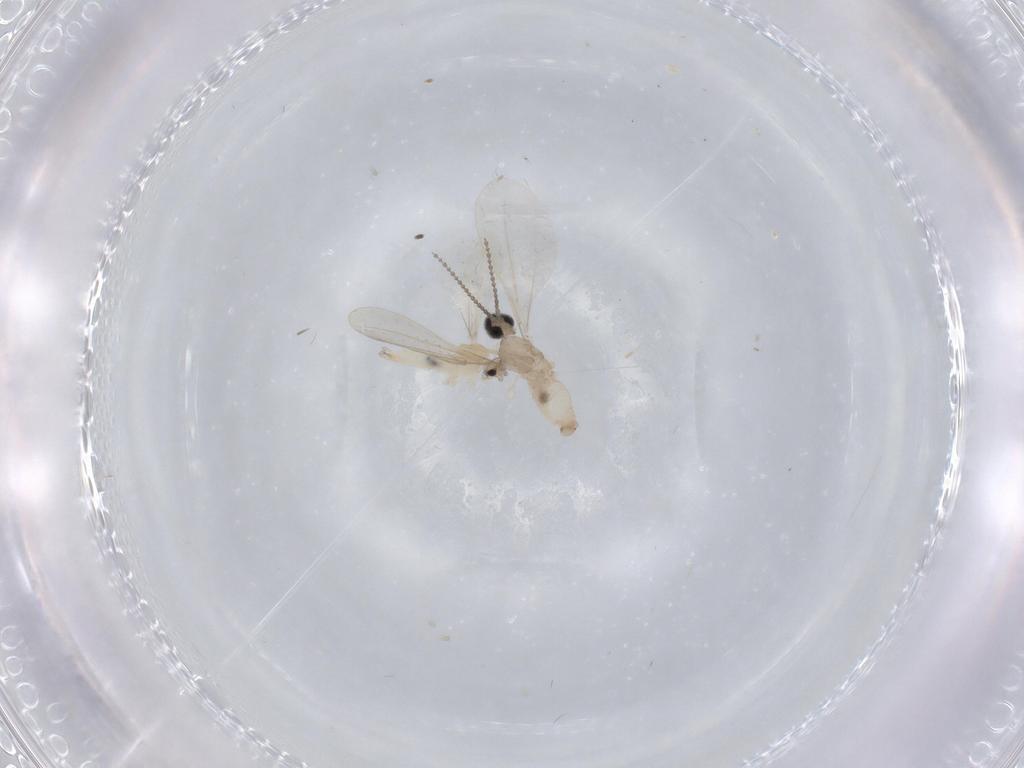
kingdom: Animalia
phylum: Arthropoda
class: Insecta
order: Diptera
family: Cecidomyiidae
